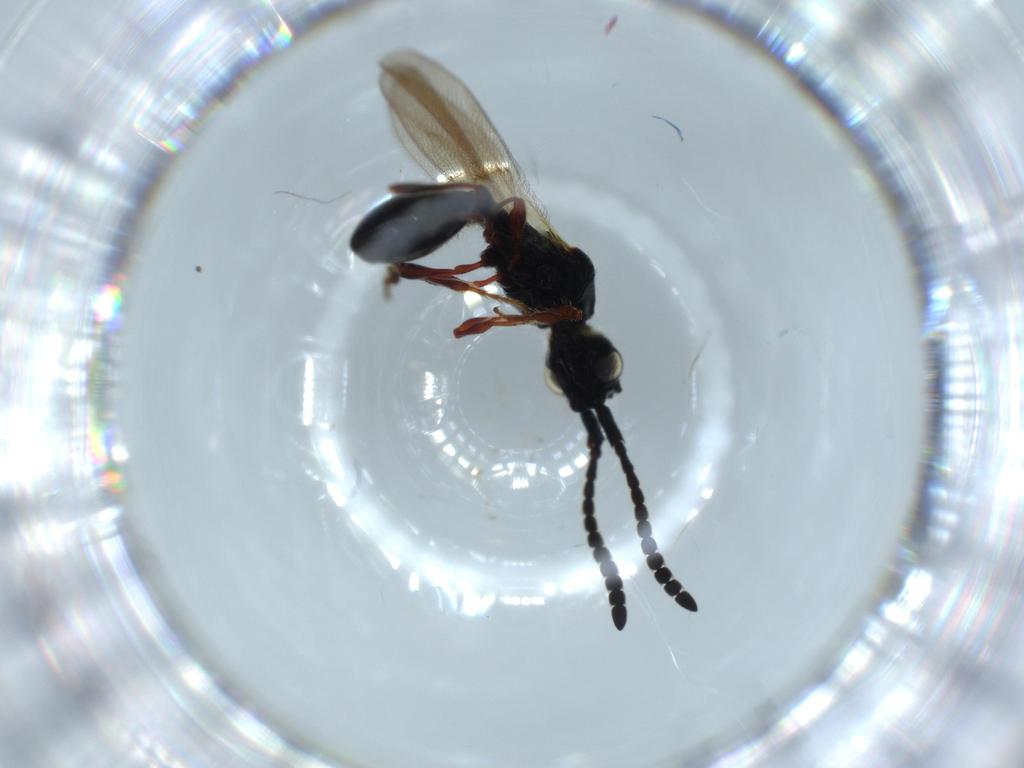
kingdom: Animalia
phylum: Arthropoda
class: Insecta
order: Hymenoptera
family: Diapriidae
